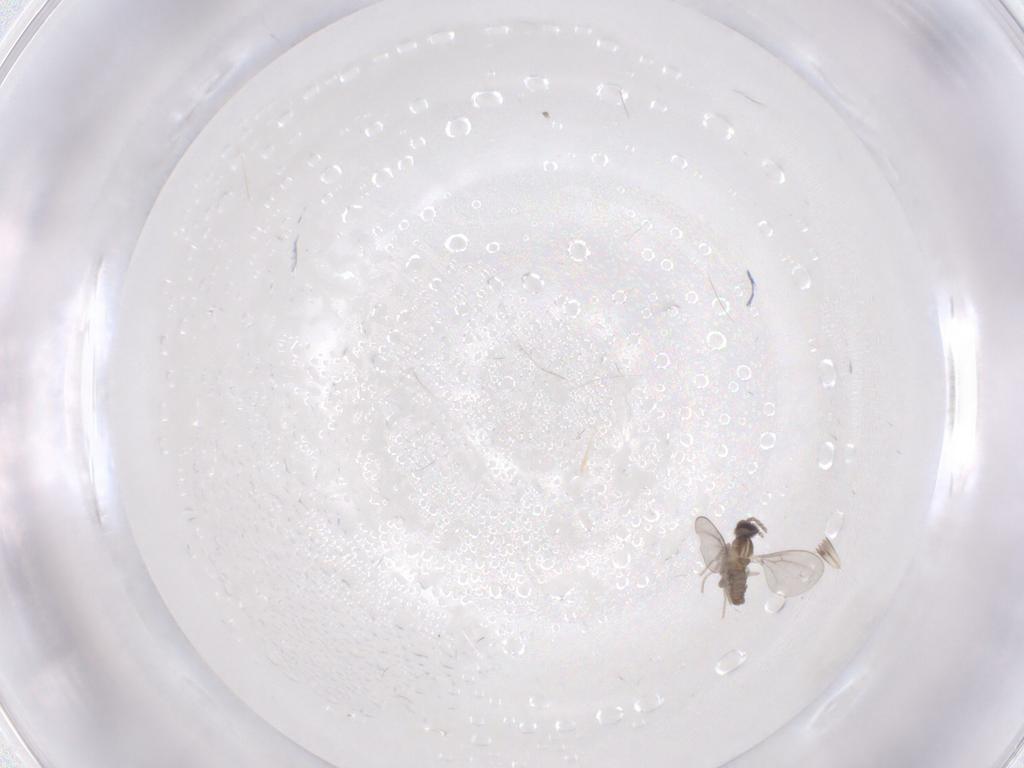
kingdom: Animalia
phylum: Arthropoda
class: Insecta
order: Diptera
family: Cecidomyiidae
